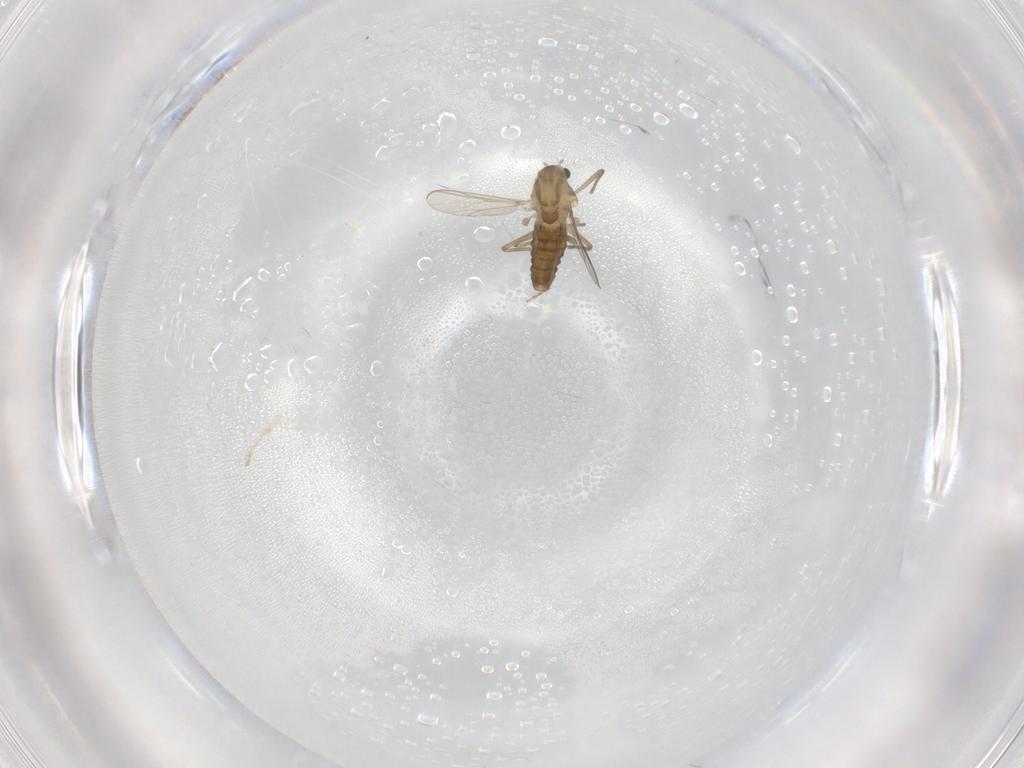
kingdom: Animalia
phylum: Arthropoda
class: Insecta
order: Diptera
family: Chironomidae
